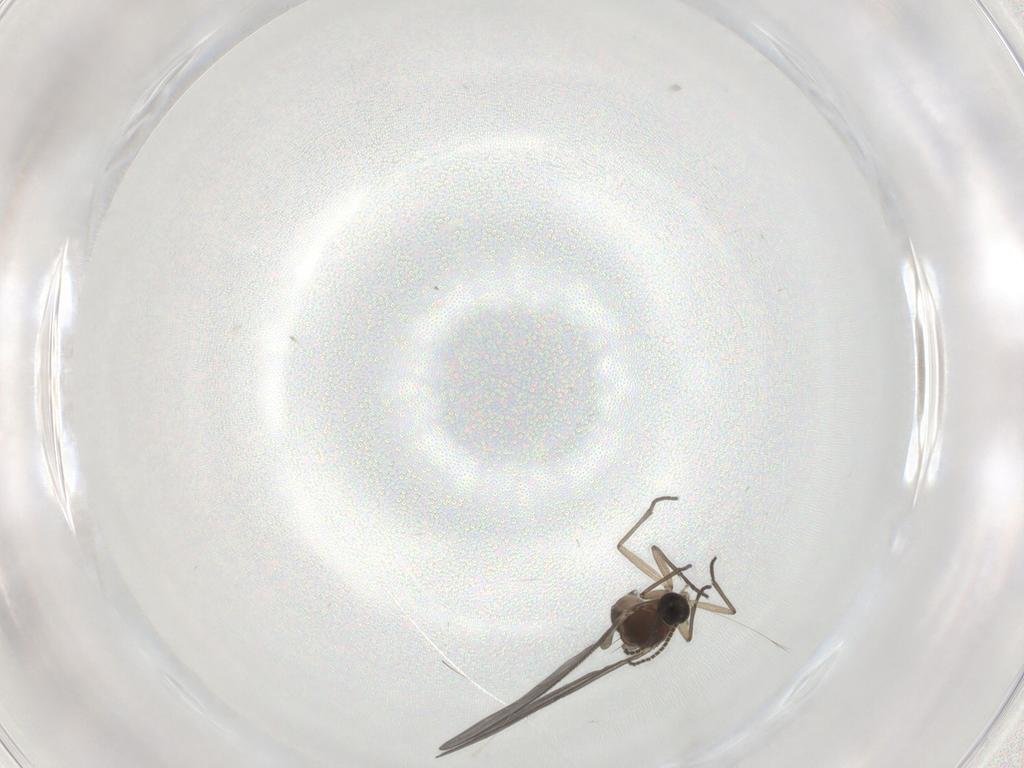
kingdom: Animalia
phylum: Arthropoda
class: Insecta
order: Diptera
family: Sciaridae
